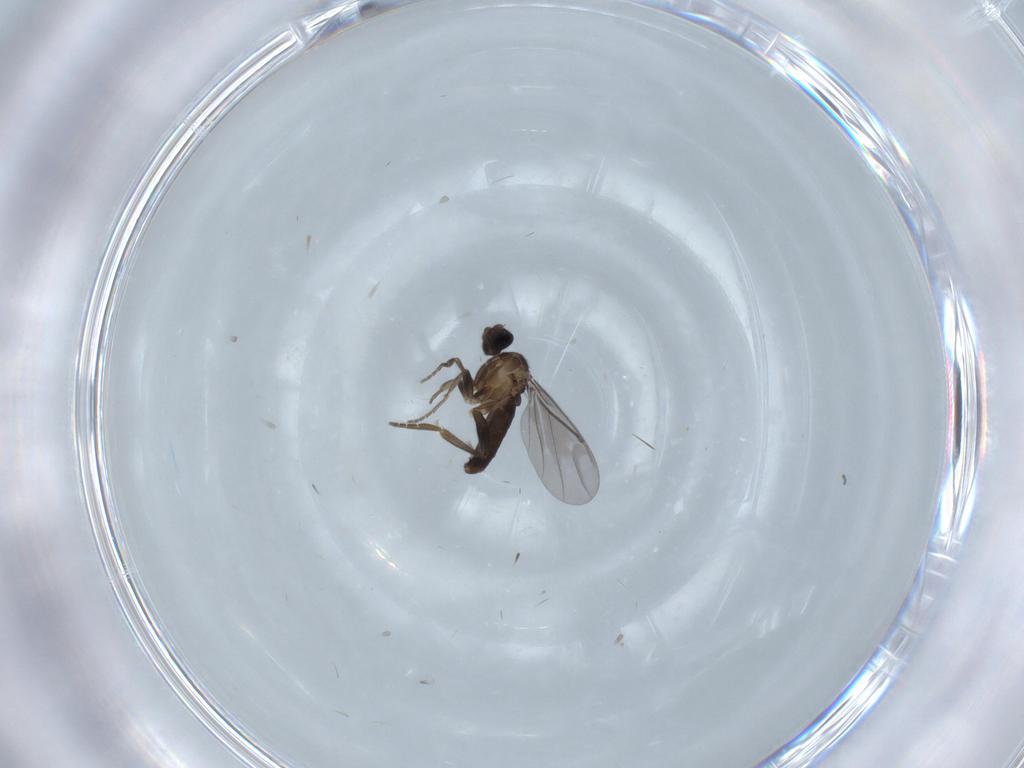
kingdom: Animalia
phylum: Arthropoda
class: Insecta
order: Diptera
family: Phoridae
